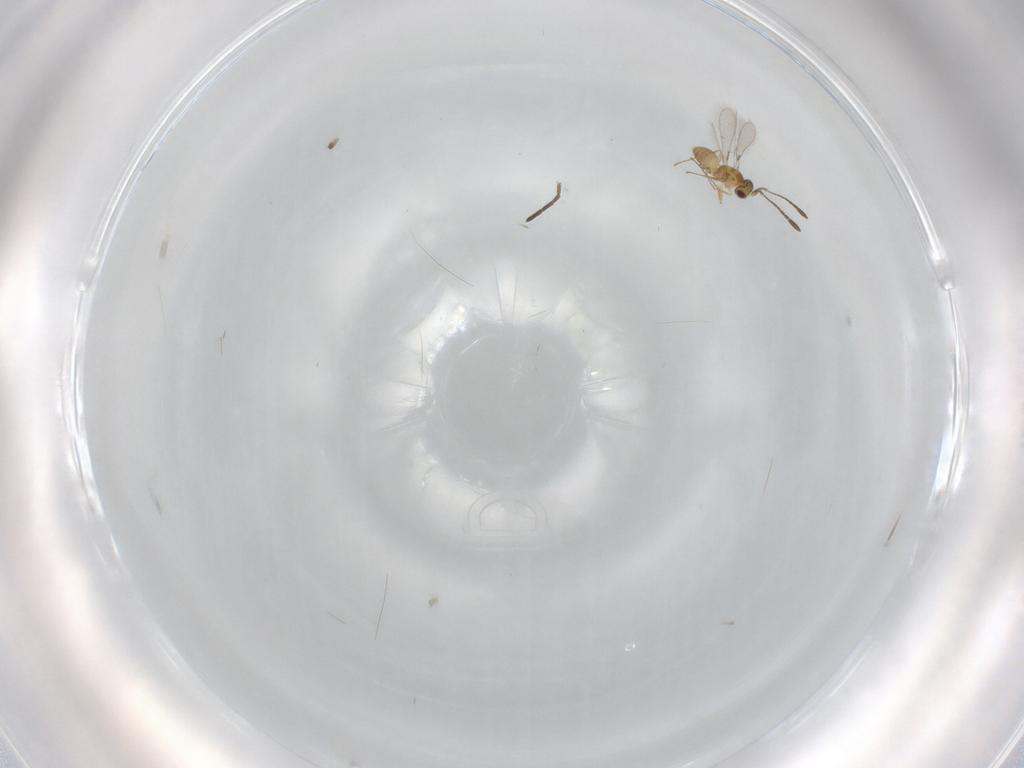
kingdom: Animalia
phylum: Arthropoda
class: Insecta
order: Hymenoptera
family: Mymaridae
